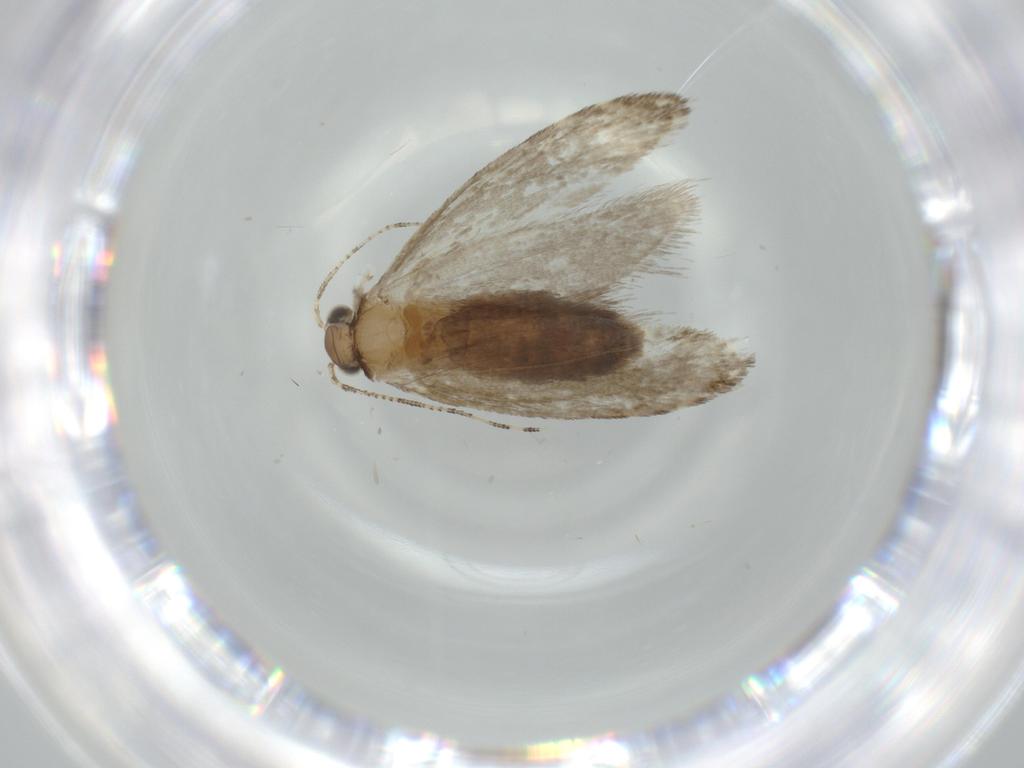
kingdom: Animalia
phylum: Arthropoda
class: Insecta
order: Lepidoptera
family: Tineidae
